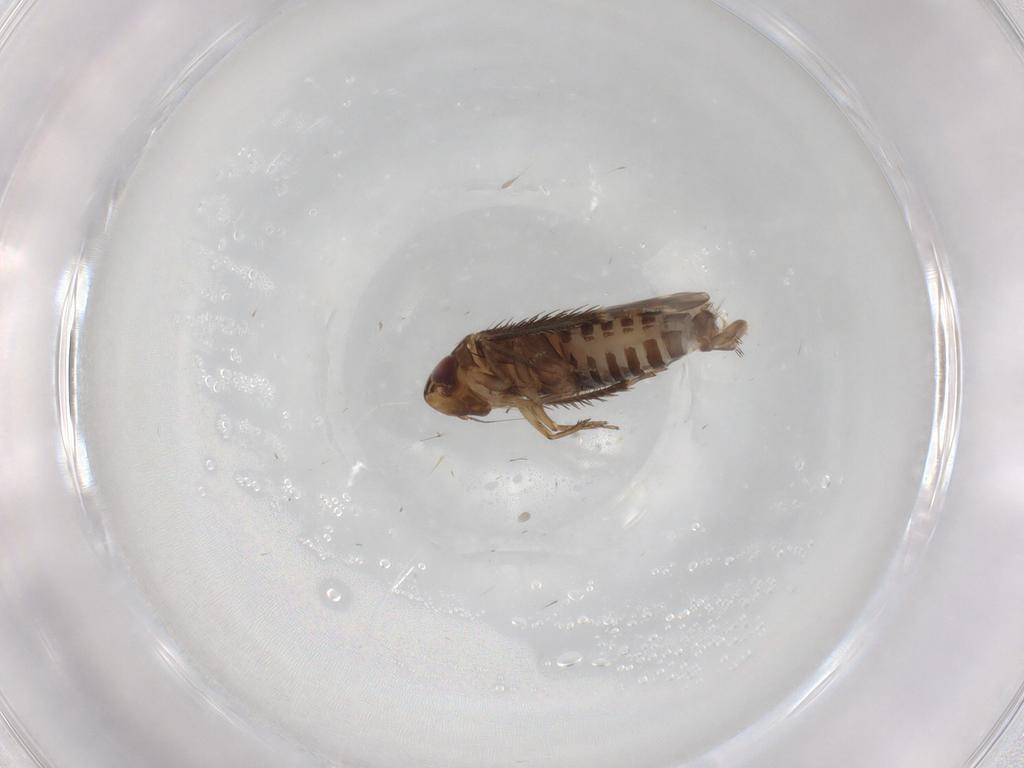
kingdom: Animalia
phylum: Arthropoda
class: Insecta
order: Hemiptera
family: Cicadellidae
